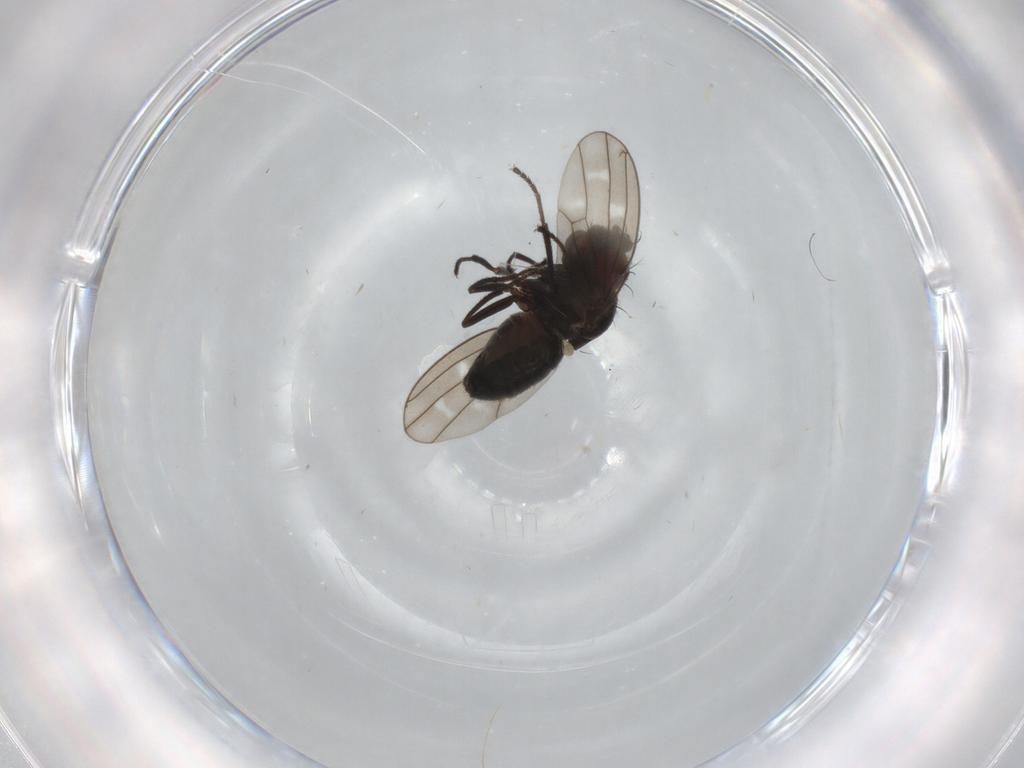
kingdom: Animalia
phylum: Arthropoda
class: Insecta
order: Diptera
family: Ephydridae
